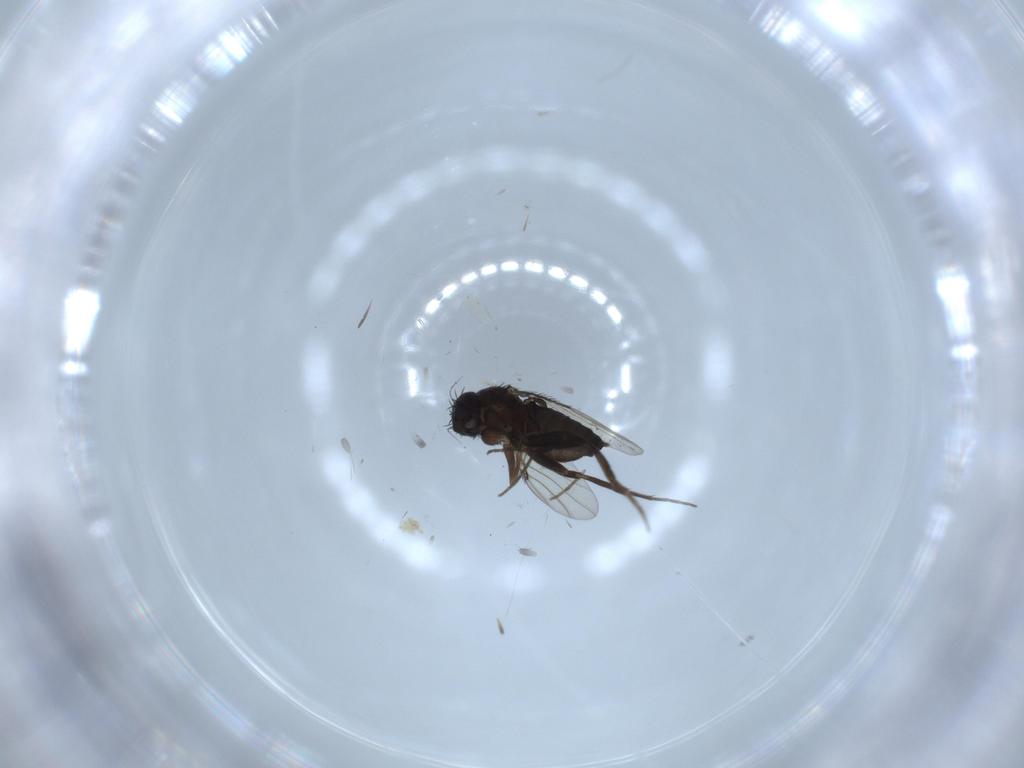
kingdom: Animalia
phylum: Arthropoda
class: Insecta
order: Diptera
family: Phoridae
